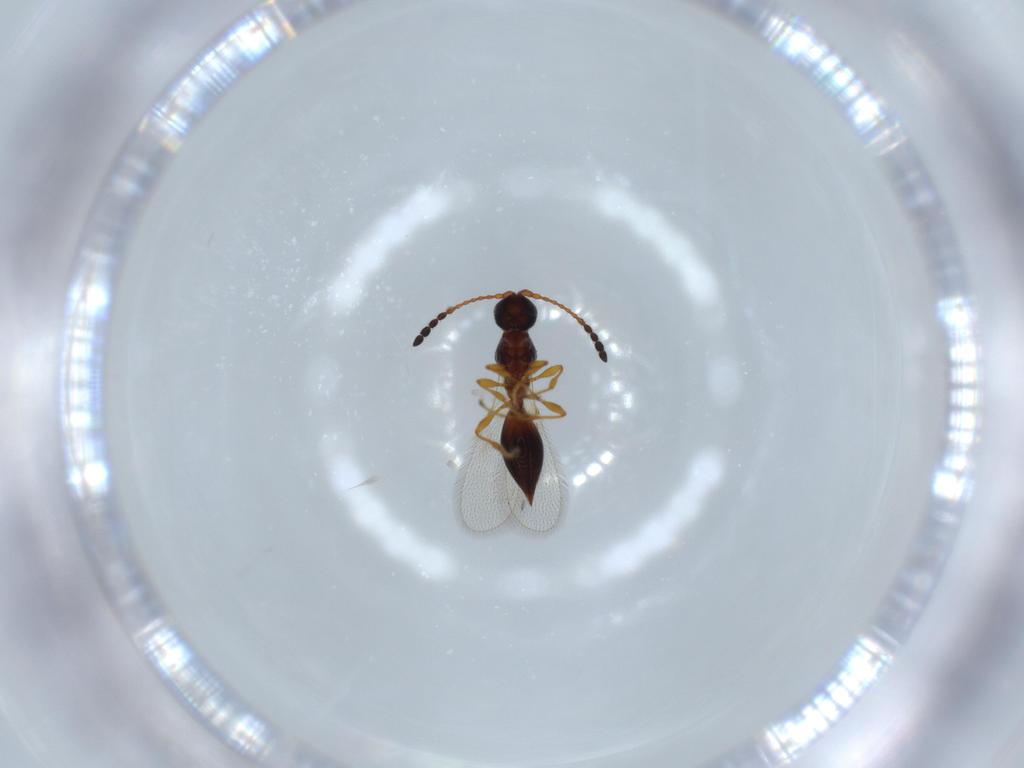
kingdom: Animalia
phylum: Arthropoda
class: Insecta
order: Hymenoptera
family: Diapriidae
